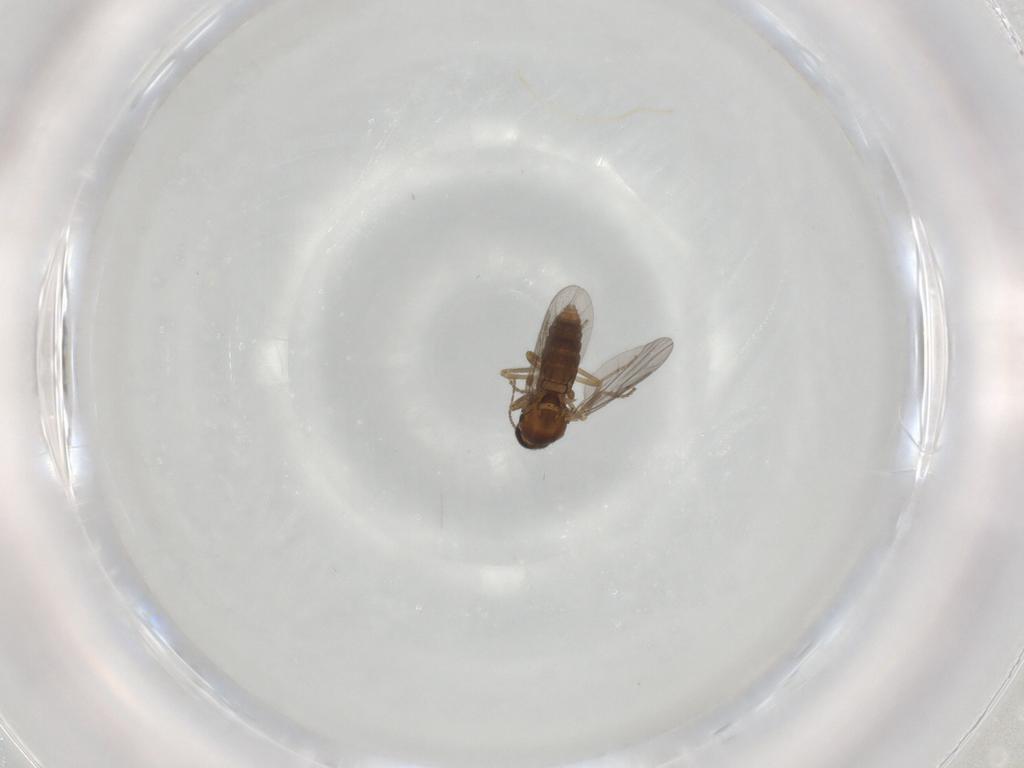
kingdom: Animalia
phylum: Arthropoda
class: Insecta
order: Diptera
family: Ceratopogonidae
